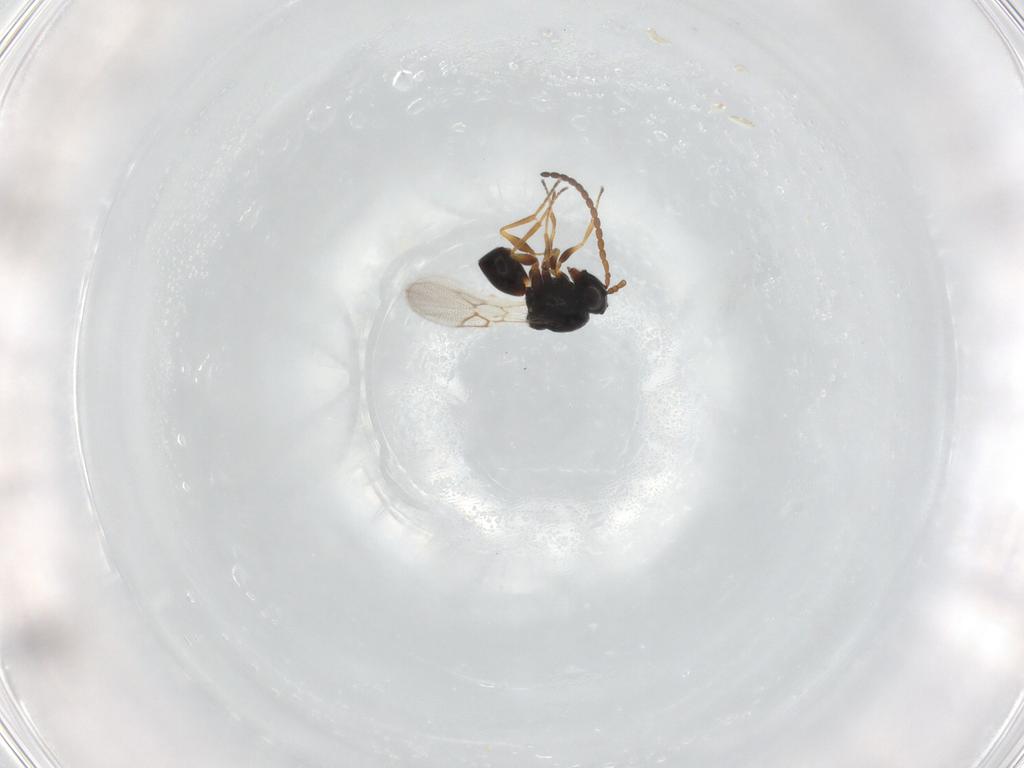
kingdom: Animalia
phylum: Arthropoda
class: Insecta
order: Hymenoptera
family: Figitidae
